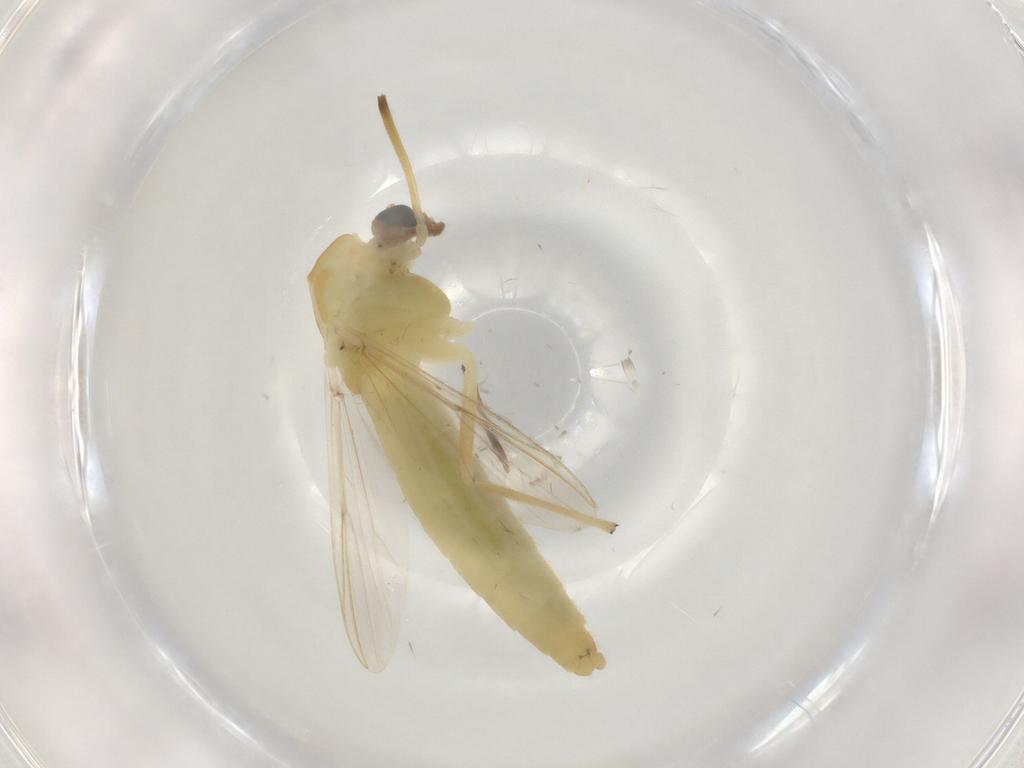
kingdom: Animalia
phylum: Arthropoda
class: Insecta
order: Diptera
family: Chironomidae
